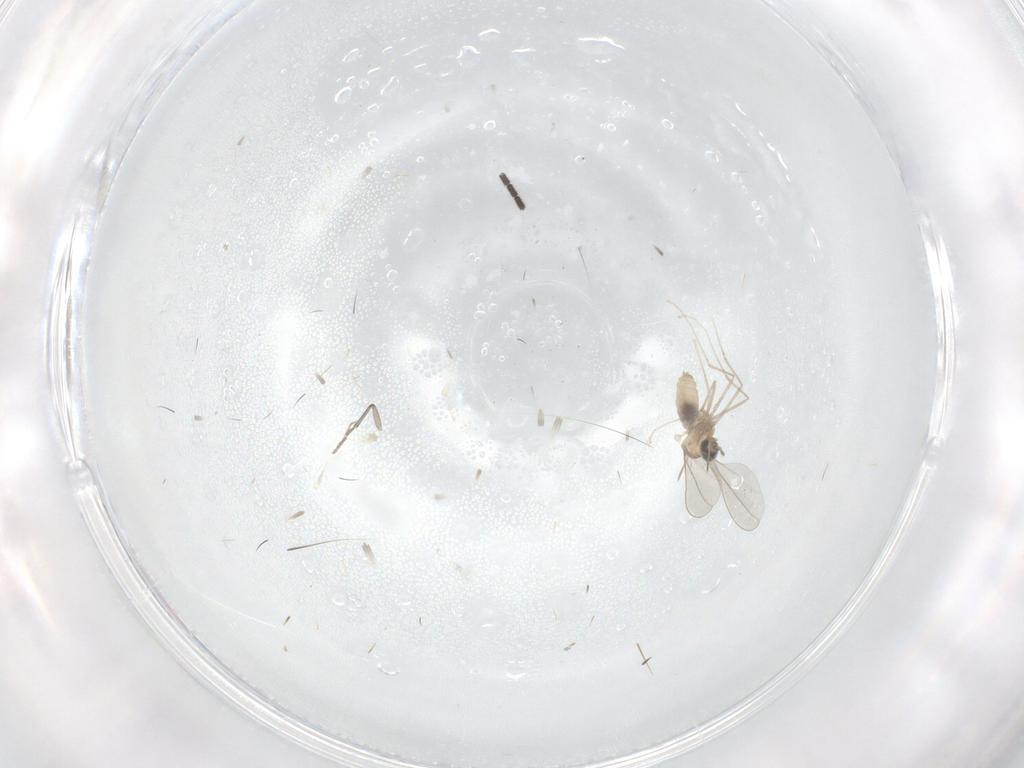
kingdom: Animalia
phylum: Arthropoda
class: Insecta
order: Diptera
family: Sciaridae
